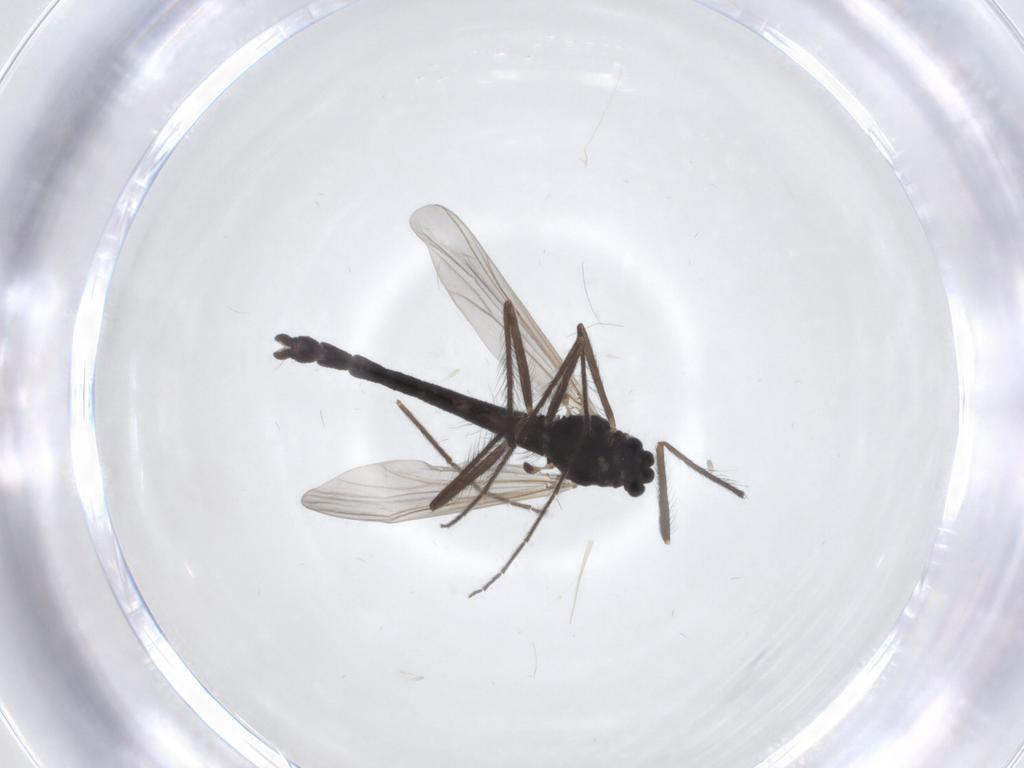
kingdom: Animalia
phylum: Arthropoda
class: Insecta
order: Diptera
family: Chironomidae
